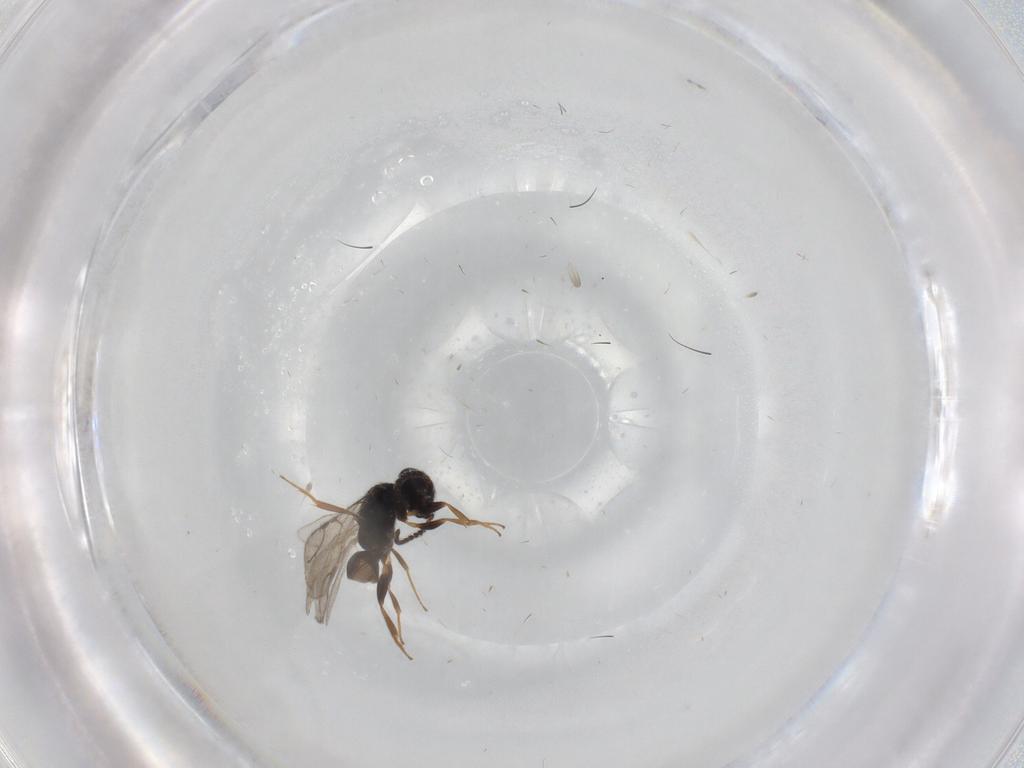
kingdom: Animalia
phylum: Arthropoda
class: Insecta
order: Hymenoptera
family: Bethylidae
